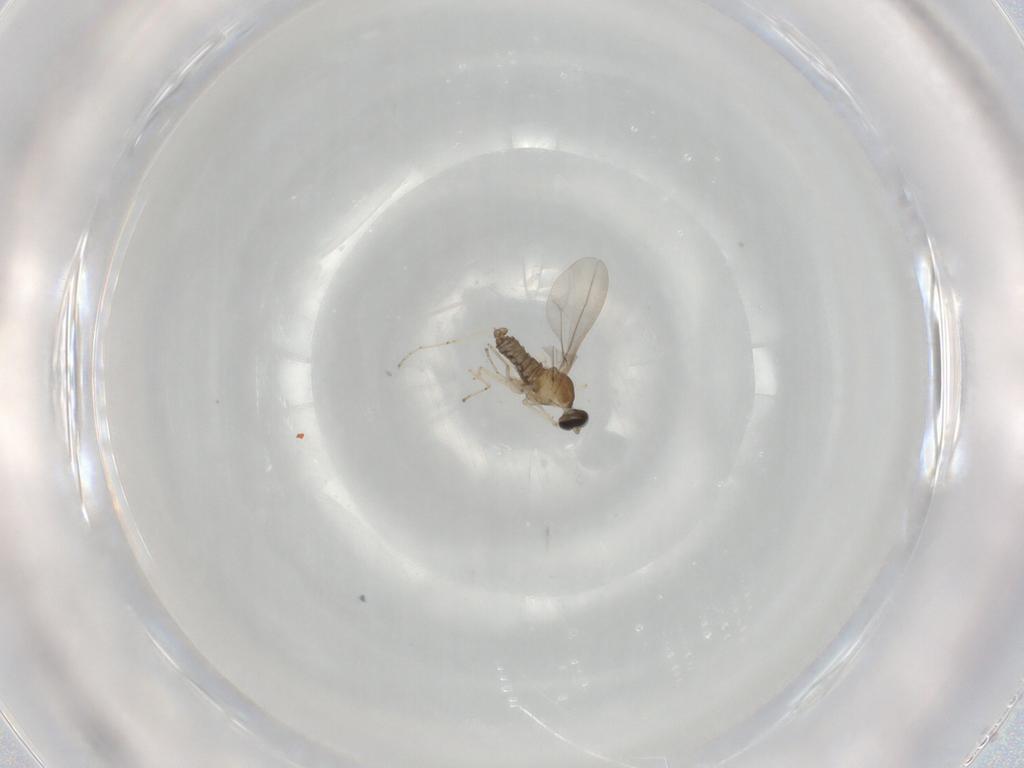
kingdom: Animalia
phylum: Arthropoda
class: Insecta
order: Diptera
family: Cecidomyiidae
